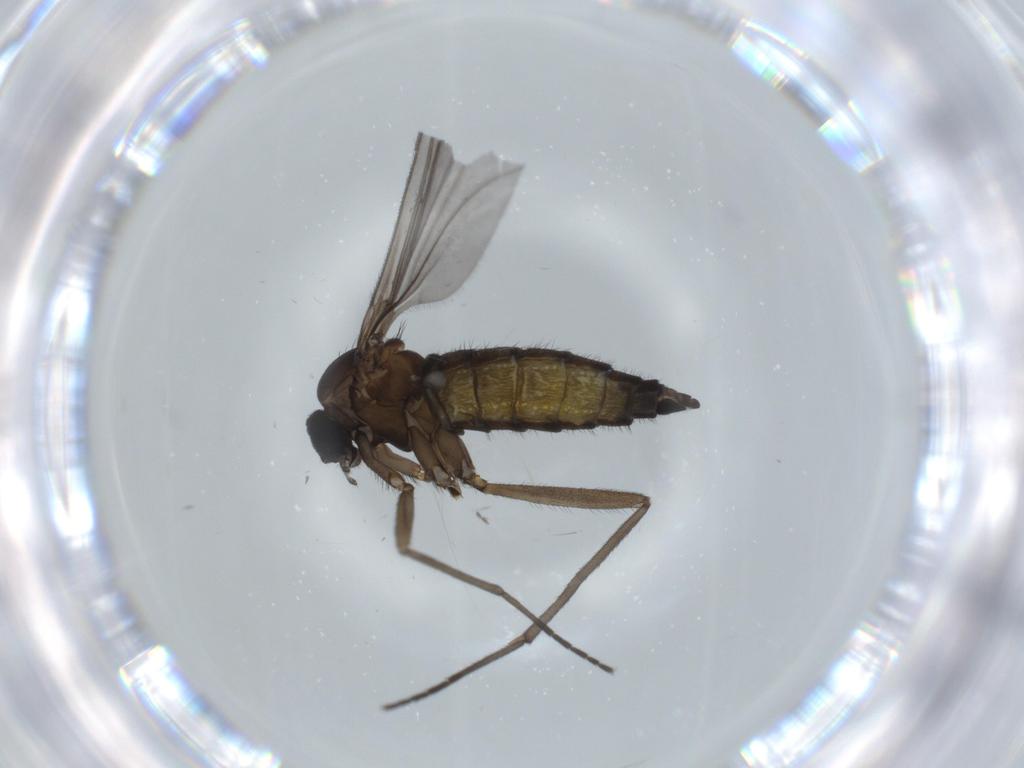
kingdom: Animalia
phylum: Arthropoda
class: Insecta
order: Diptera
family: Sciaridae
